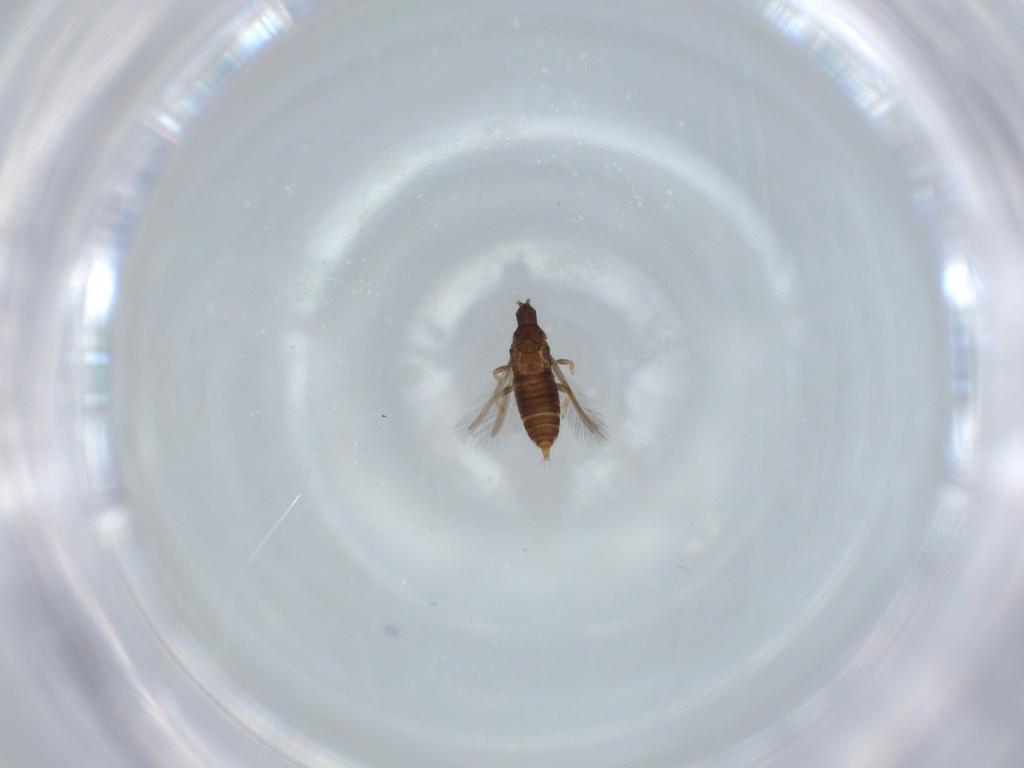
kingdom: Animalia
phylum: Arthropoda
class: Insecta
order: Thysanoptera
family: Phlaeothripidae
